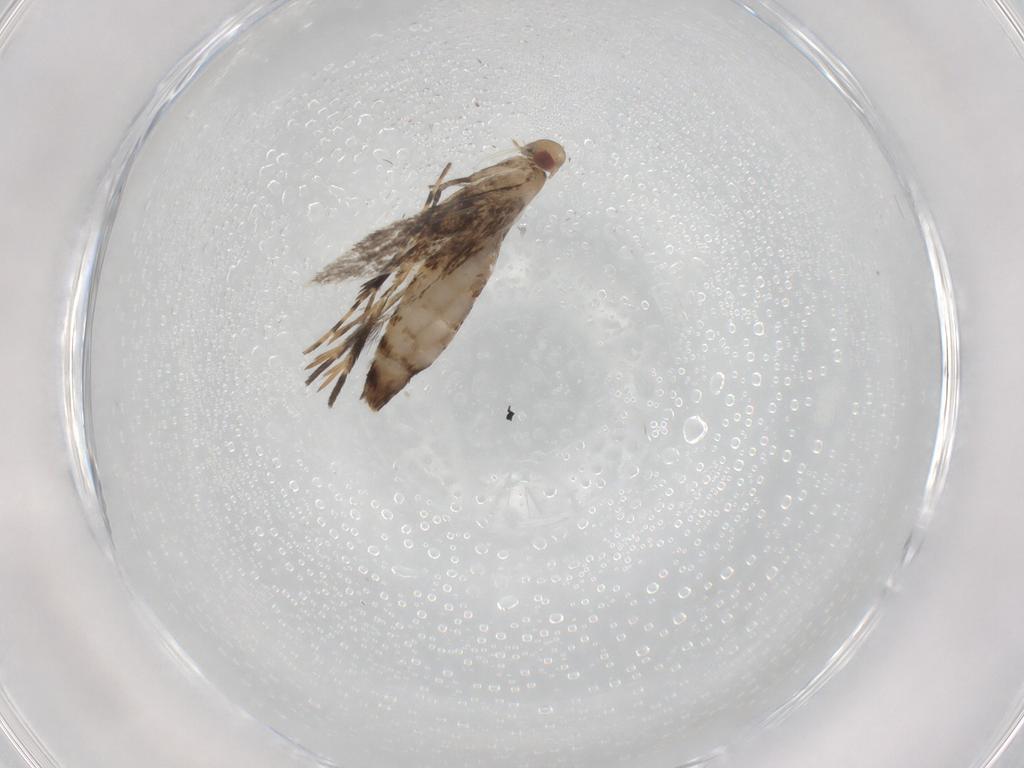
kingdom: Animalia
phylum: Arthropoda
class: Insecta
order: Lepidoptera
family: Gracillariidae
